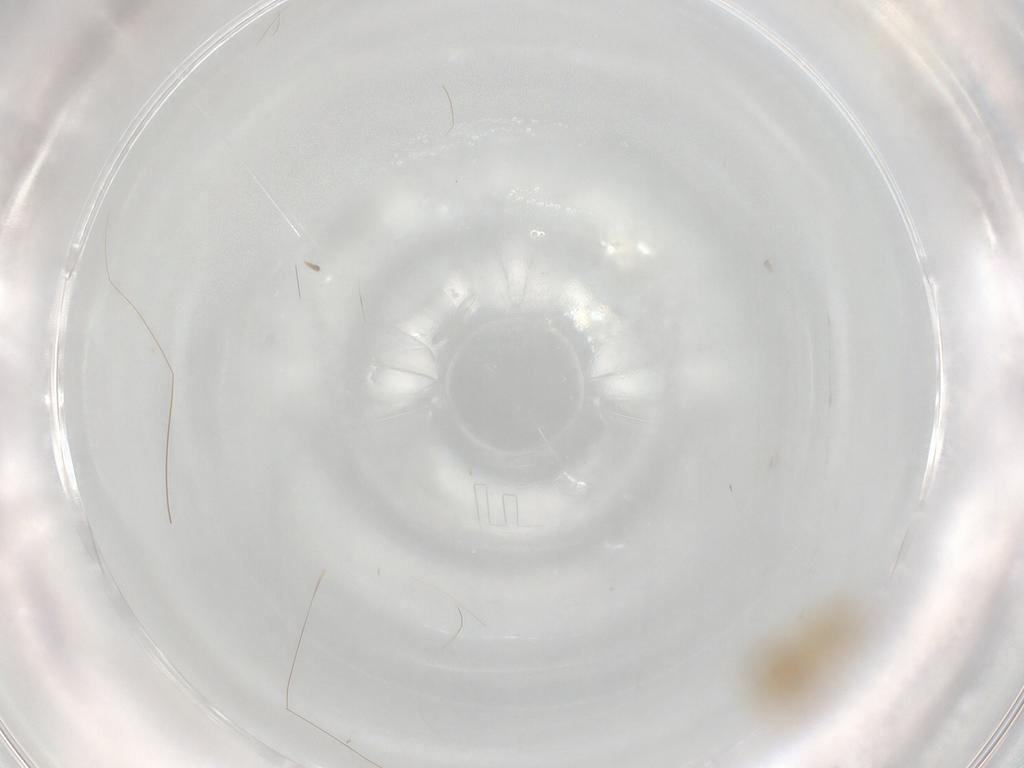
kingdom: Animalia
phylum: Arthropoda
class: Insecta
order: Hemiptera
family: Aleyrodidae
